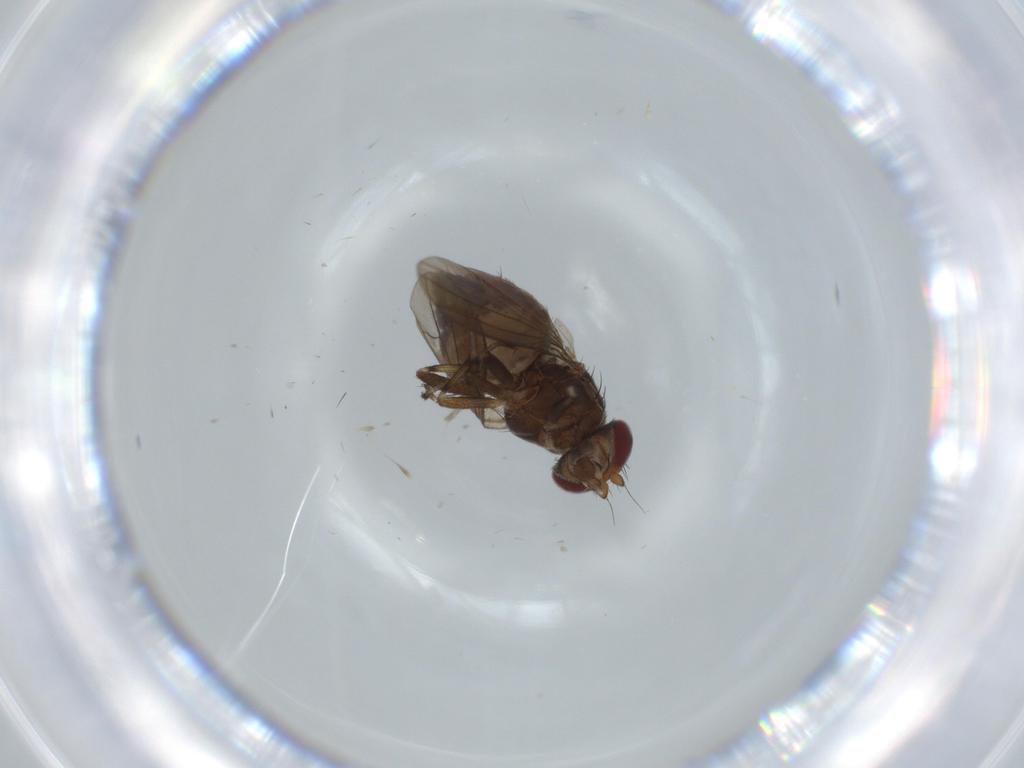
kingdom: Animalia
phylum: Arthropoda
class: Insecta
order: Diptera
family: Heleomyzidae
